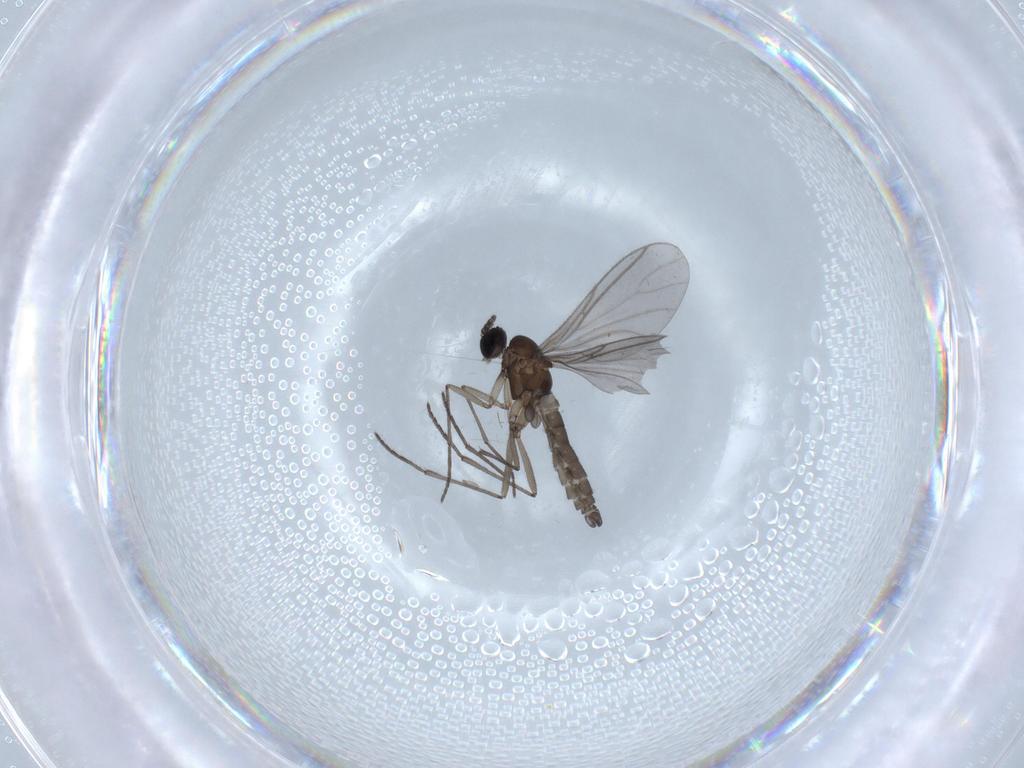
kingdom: Animalia
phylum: Arthropoda
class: Insecta
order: Diptera
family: Sciaridae
